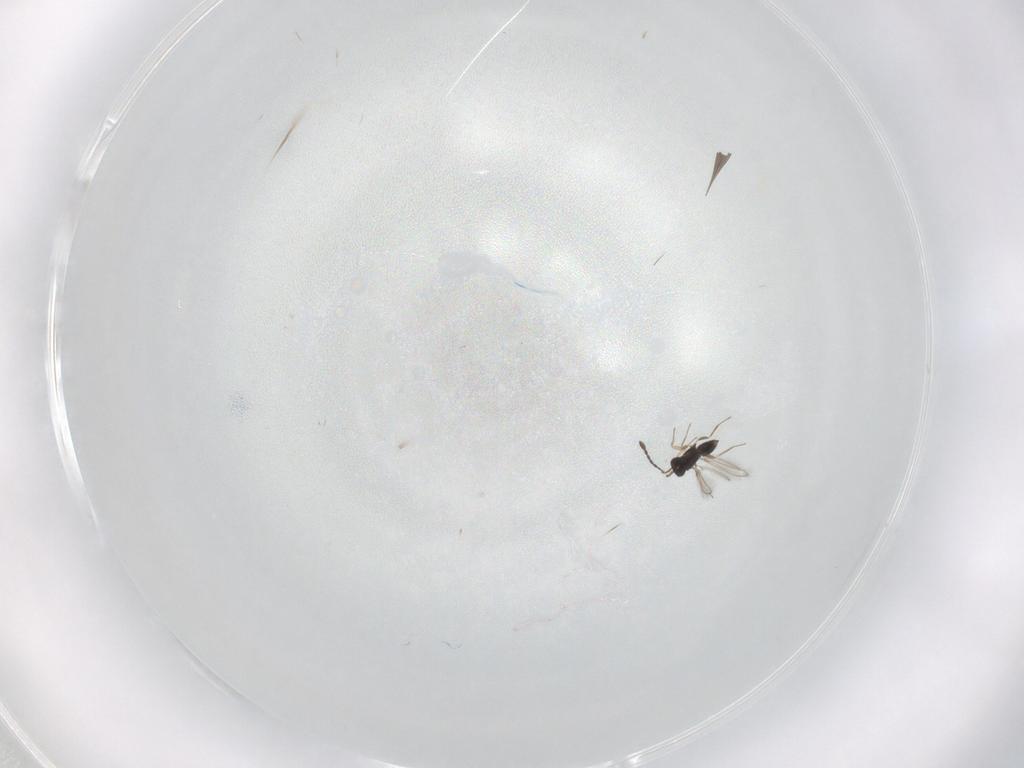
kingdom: Animalia
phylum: Arthropoda
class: Insecta
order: Hymenoptera
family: Mymaridae
